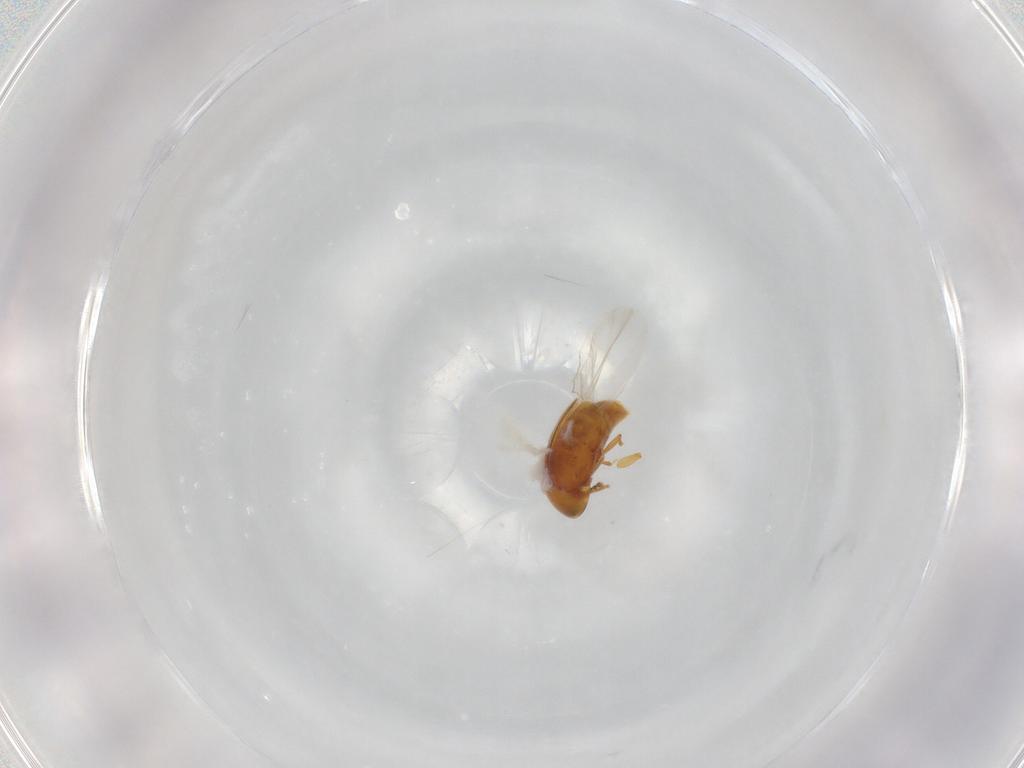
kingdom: Animalia
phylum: Arthropoda
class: Insecta
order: Coleoptera
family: Corylophidae
